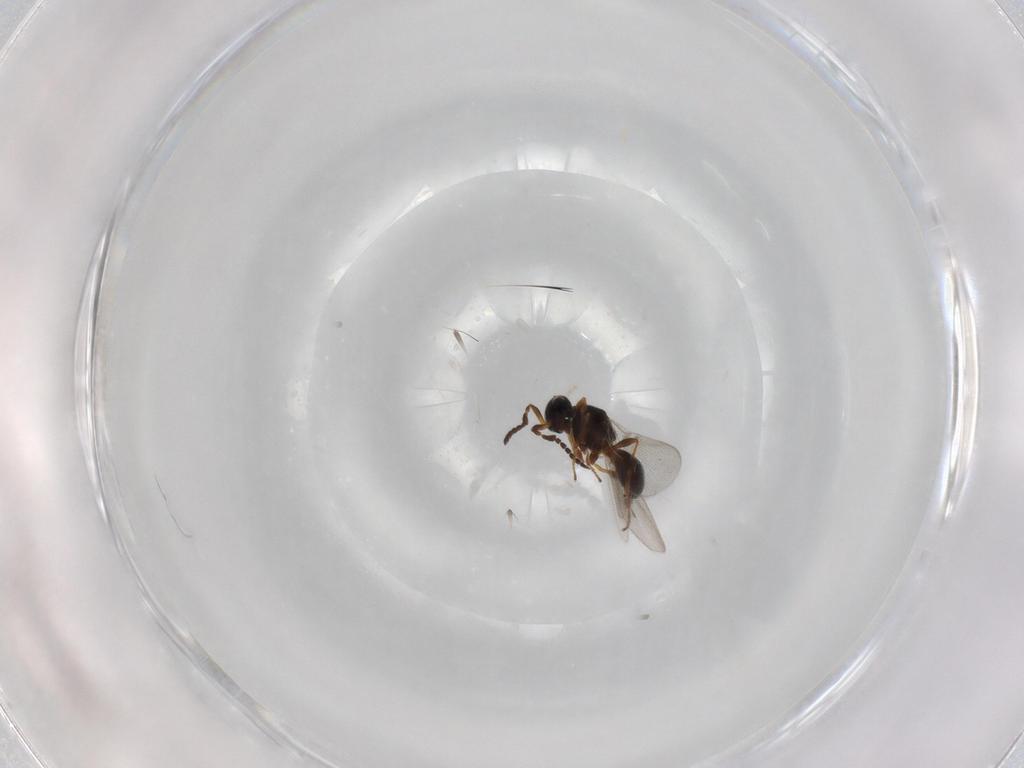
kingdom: Animalia
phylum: Arthropoda
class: Insecta
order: Hymenoptera
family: Platygastridae
